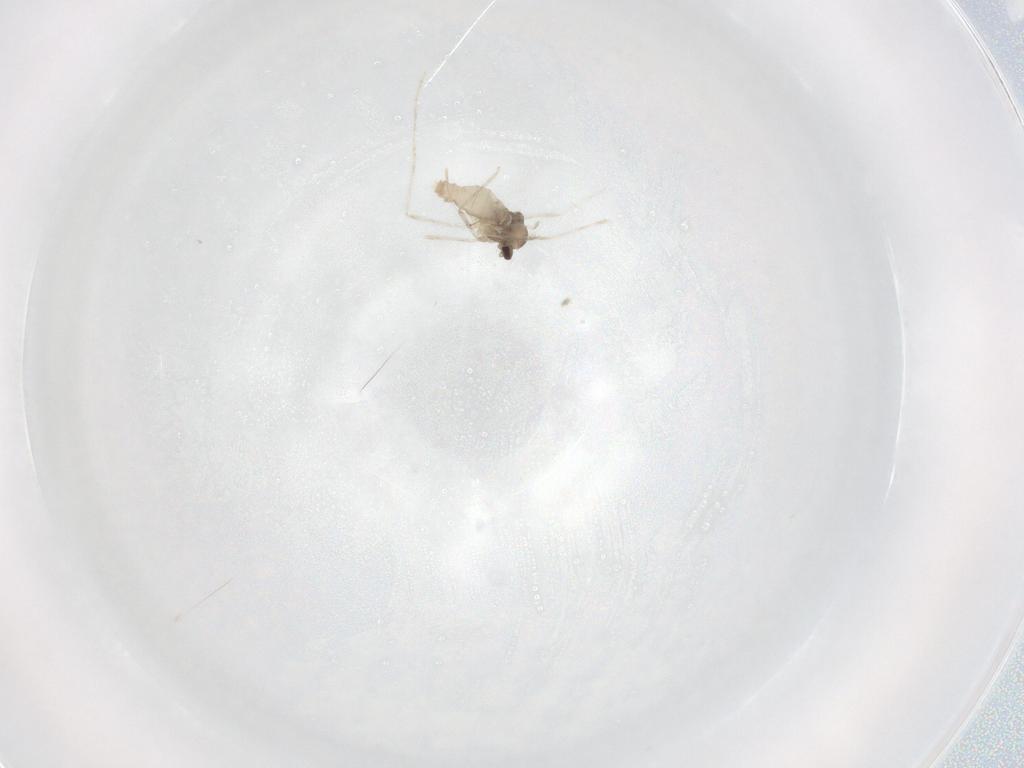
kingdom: Animalia
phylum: Arthropoda
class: Insecta
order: Diptera
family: Cecidomyiidae
